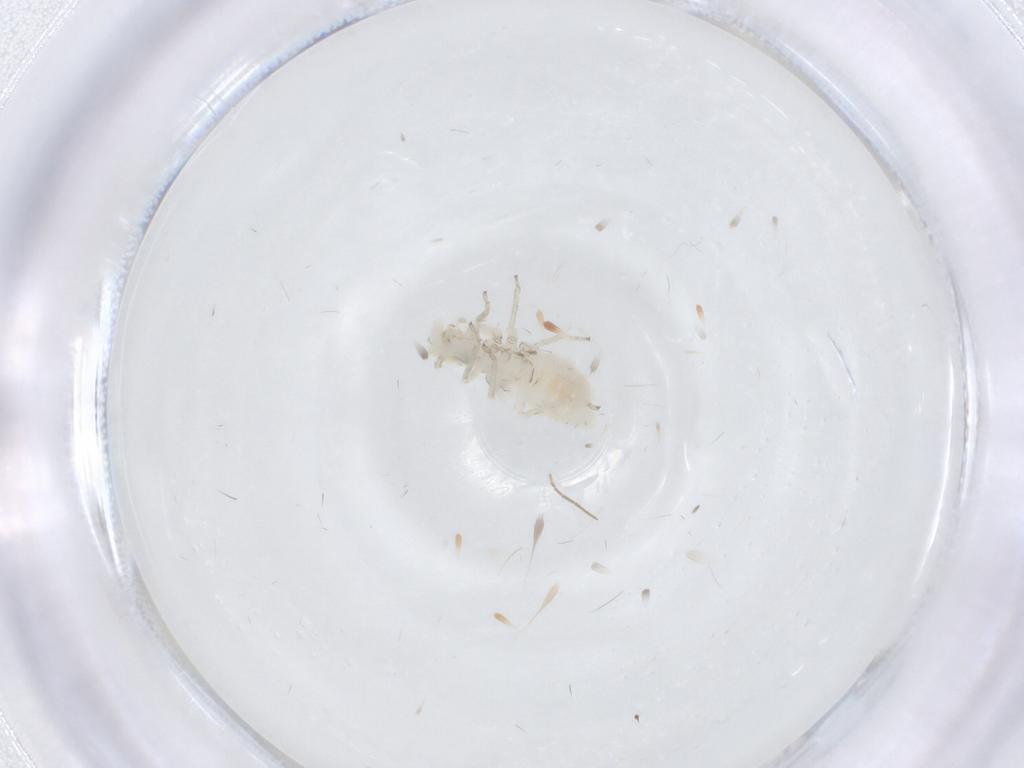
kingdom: Animalia
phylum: Arthropoda
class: Insecta
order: Psocodea
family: Caeciliusidae
